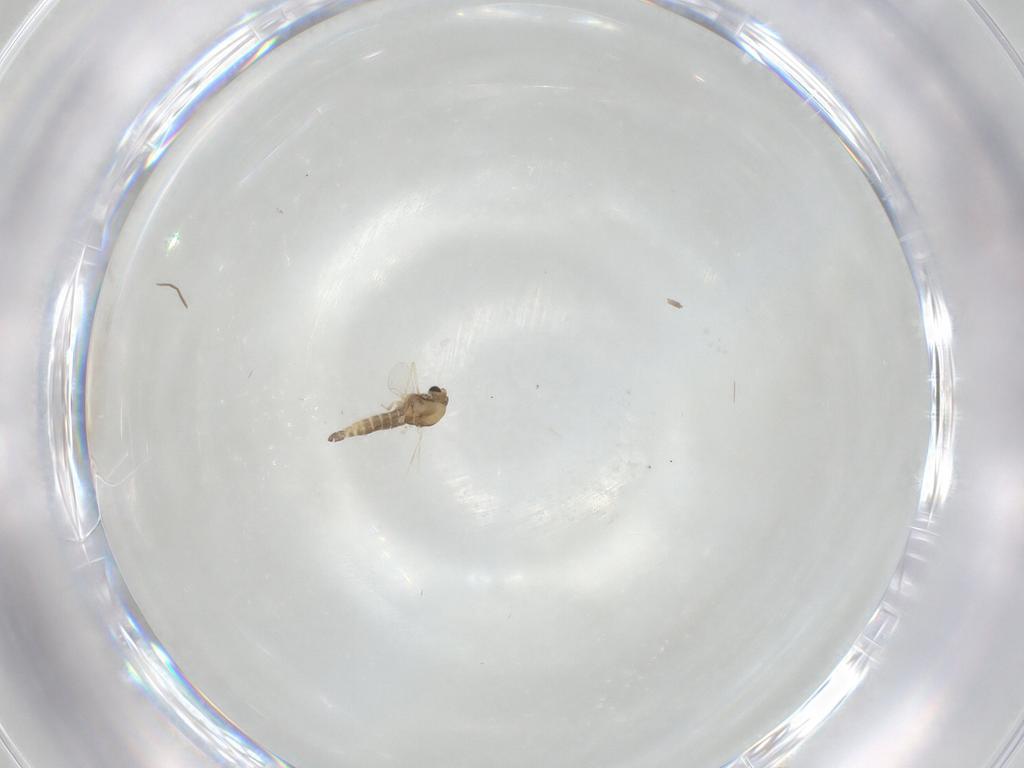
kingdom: Animalia
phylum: Arthropoda
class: Insecta
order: Diptera
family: Chironomidae
